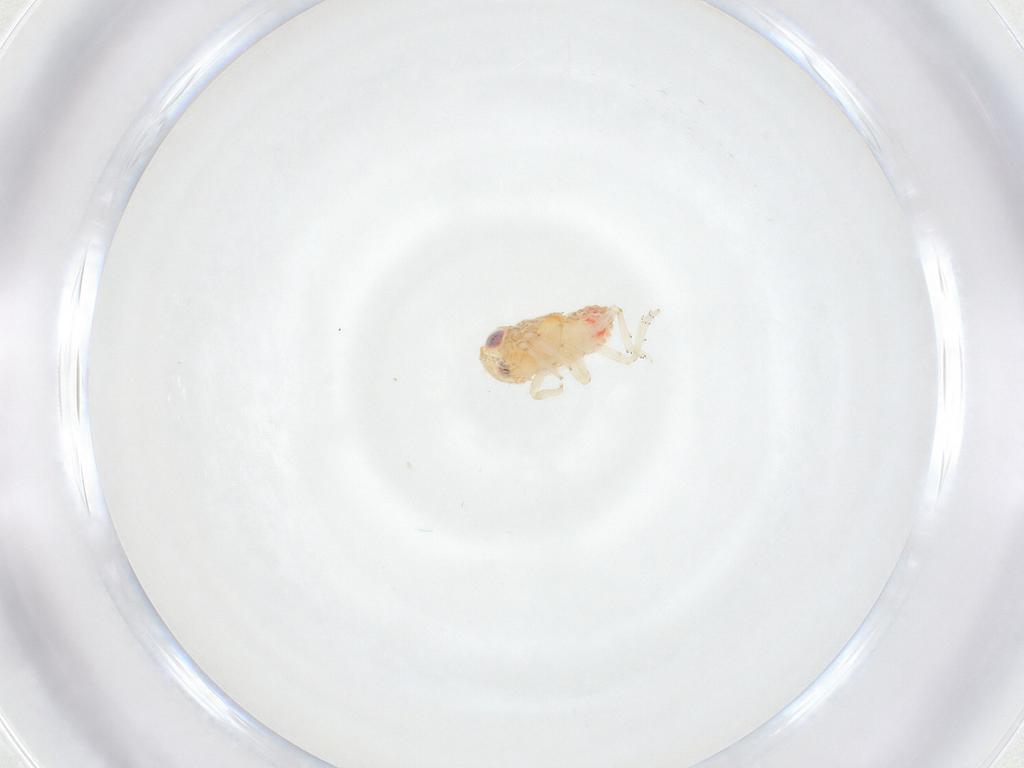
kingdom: Animalia
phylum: Arthropoda
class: Insecta
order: Hemiptera
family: Issidae
